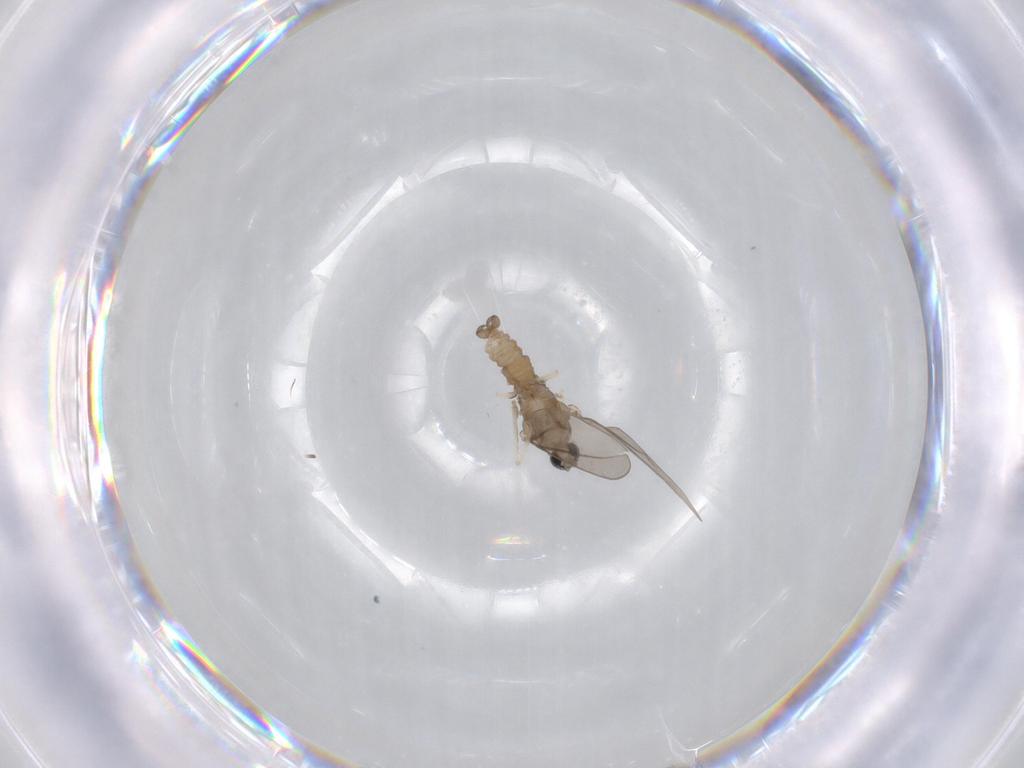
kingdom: Animalia
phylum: Arthropoda
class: Insecta
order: Diptera
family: Cecidomyiidae
